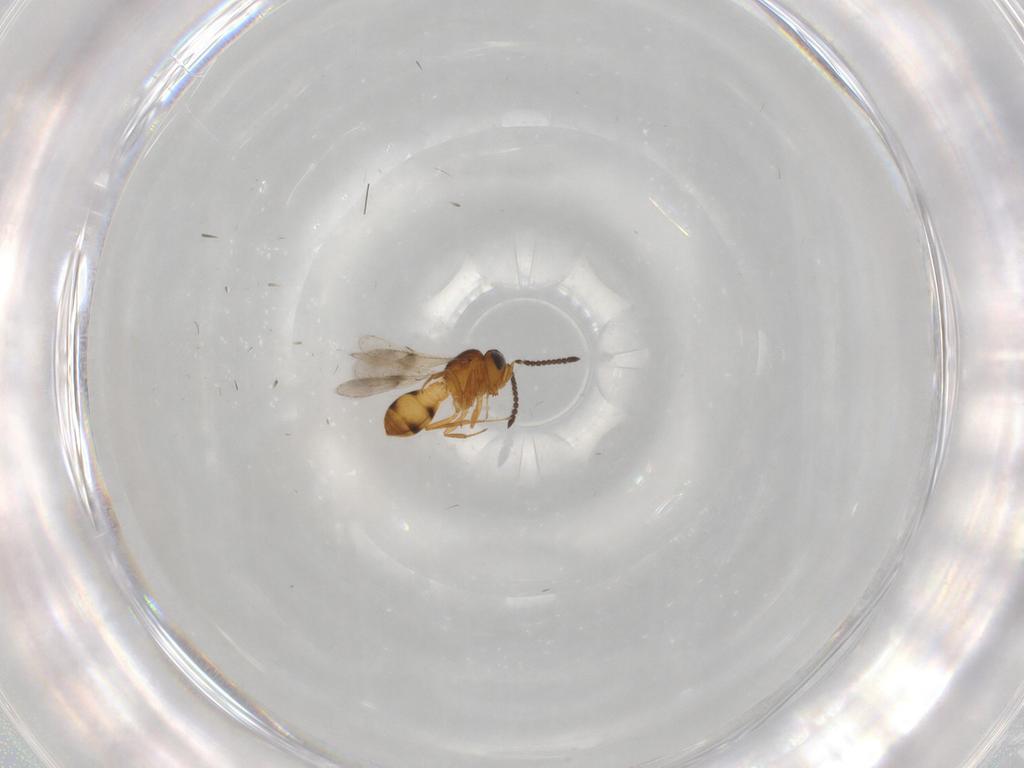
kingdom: Animalia
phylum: Arthropoda
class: Insecta
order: Hymenoptera
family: Scelionidae
